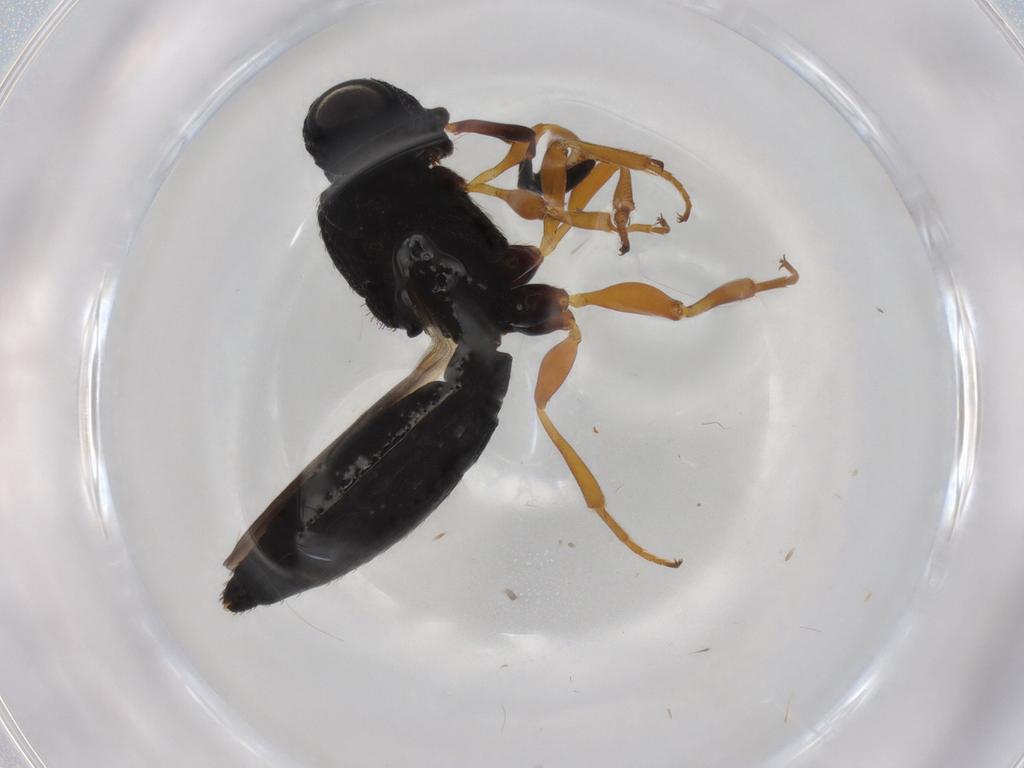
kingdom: Animalia
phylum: Arthropoda
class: Insecta
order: Hymenoptera
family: Scelionidae
